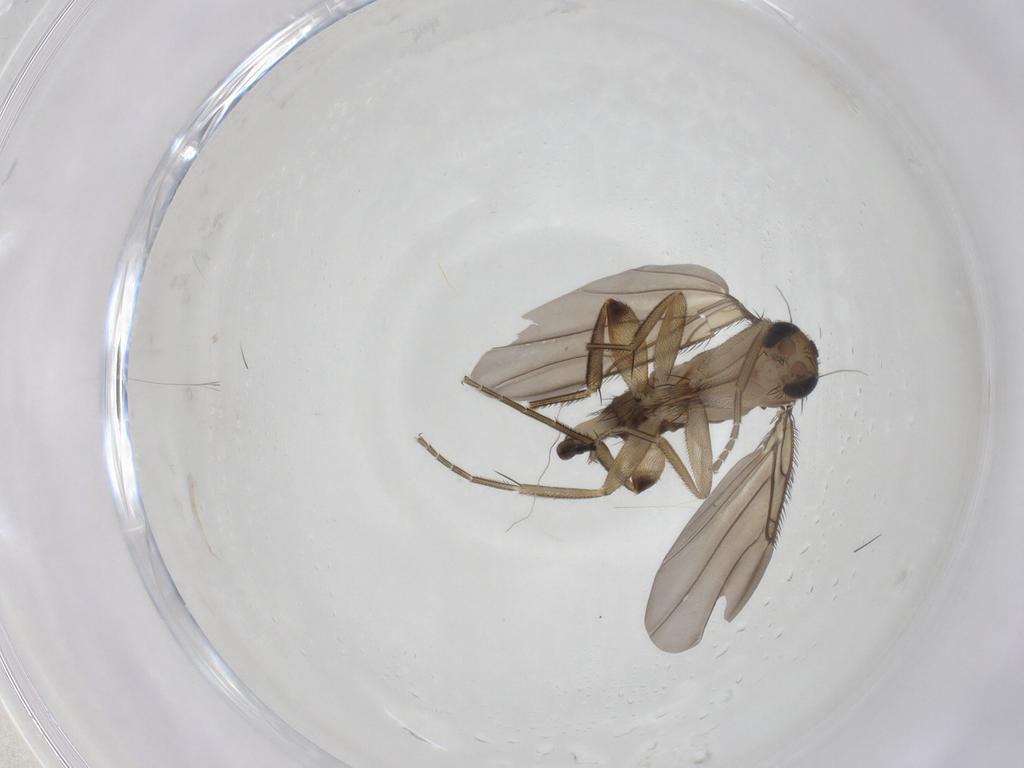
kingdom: Animalia
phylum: Arthropoda
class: Insecta
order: Diptera
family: Phoridae
